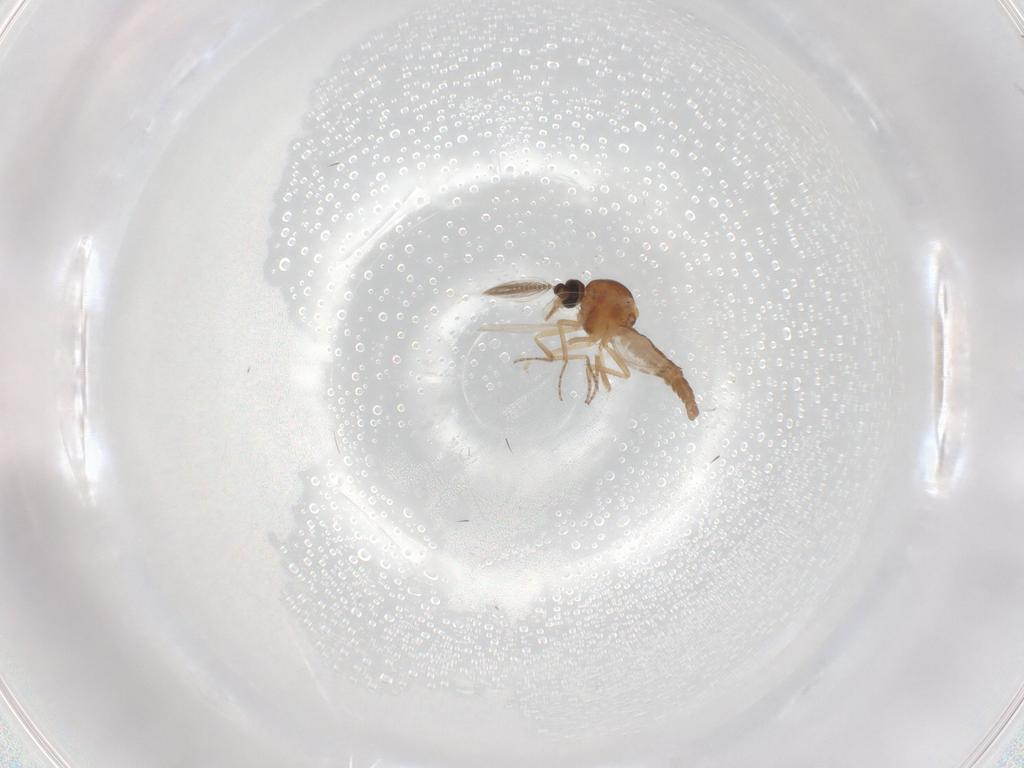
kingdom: Animalia
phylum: Arthropoda
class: Insecta
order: Diptera
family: Ceratopogonidae
